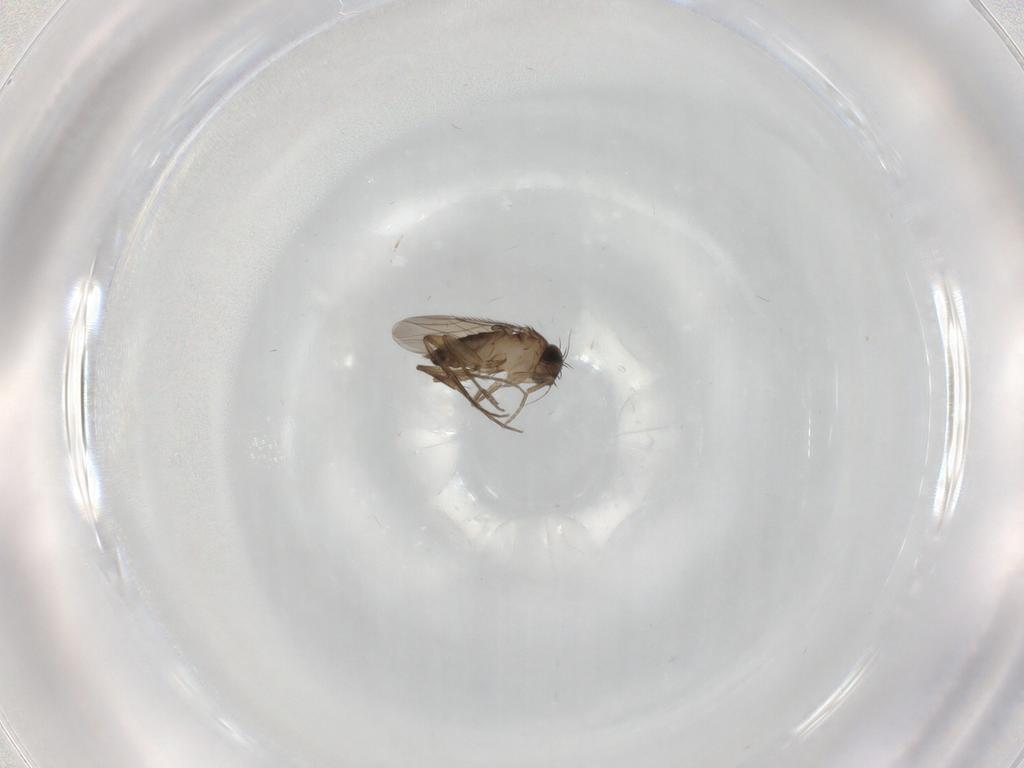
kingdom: Animalia
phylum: Arthropoda
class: Insecta
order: Diptera
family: Phoridae
